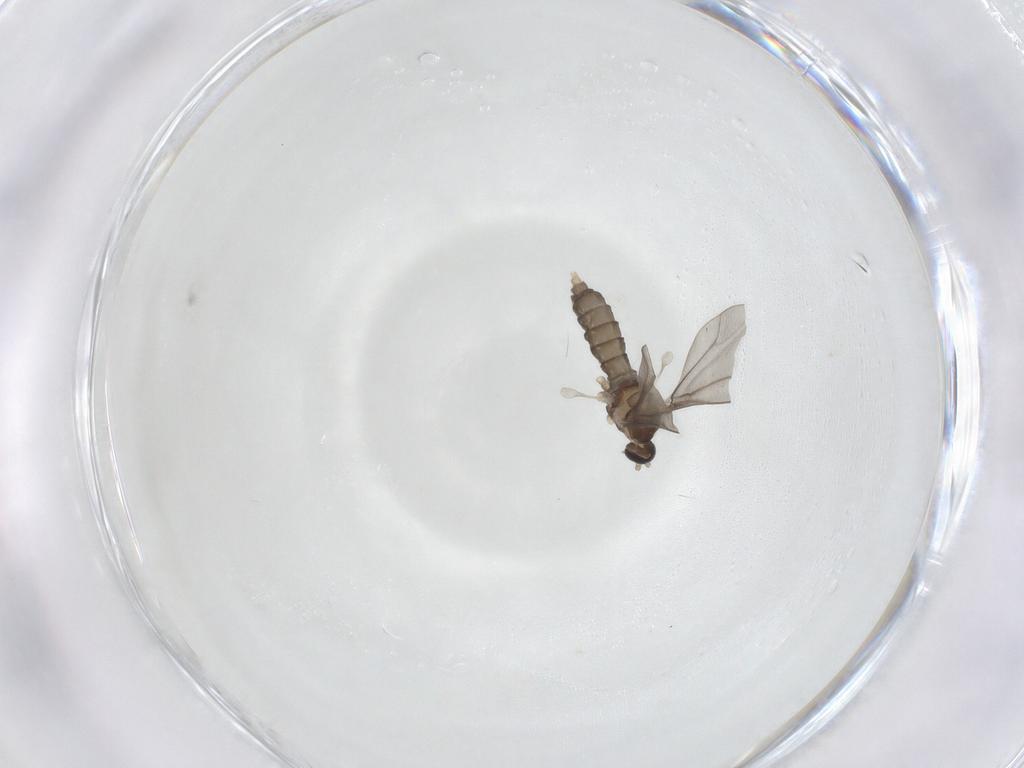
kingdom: Animalia
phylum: Arthropoda
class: Insecta
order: Diptera
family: Cecidomyiidae
